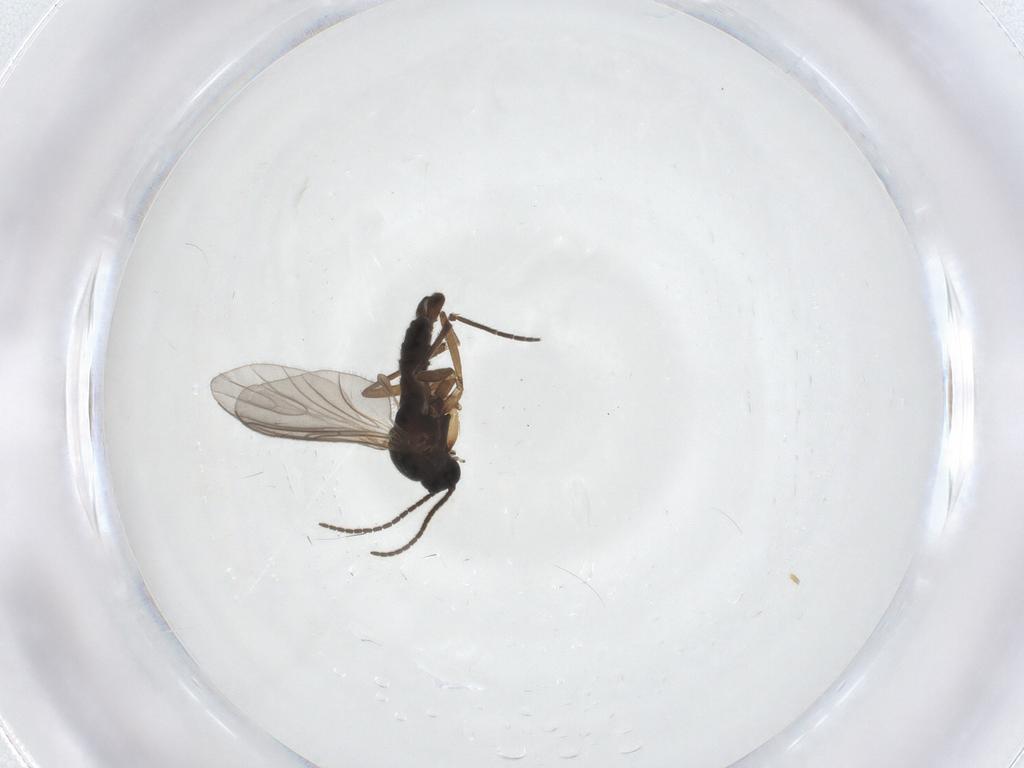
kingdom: Animalia
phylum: Arthropoda
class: Insecta
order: Diptera
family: Sciaridae
